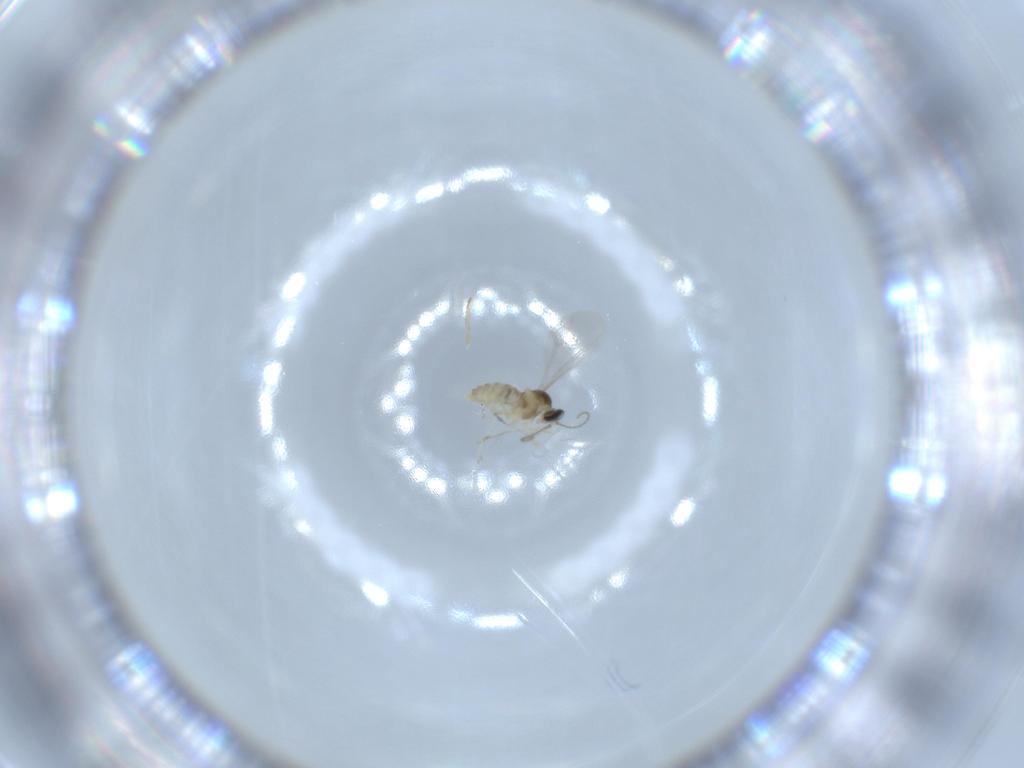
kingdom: Animalia
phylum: Arthropoda
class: Insecta
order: Diptera
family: Cecidomyiidae
